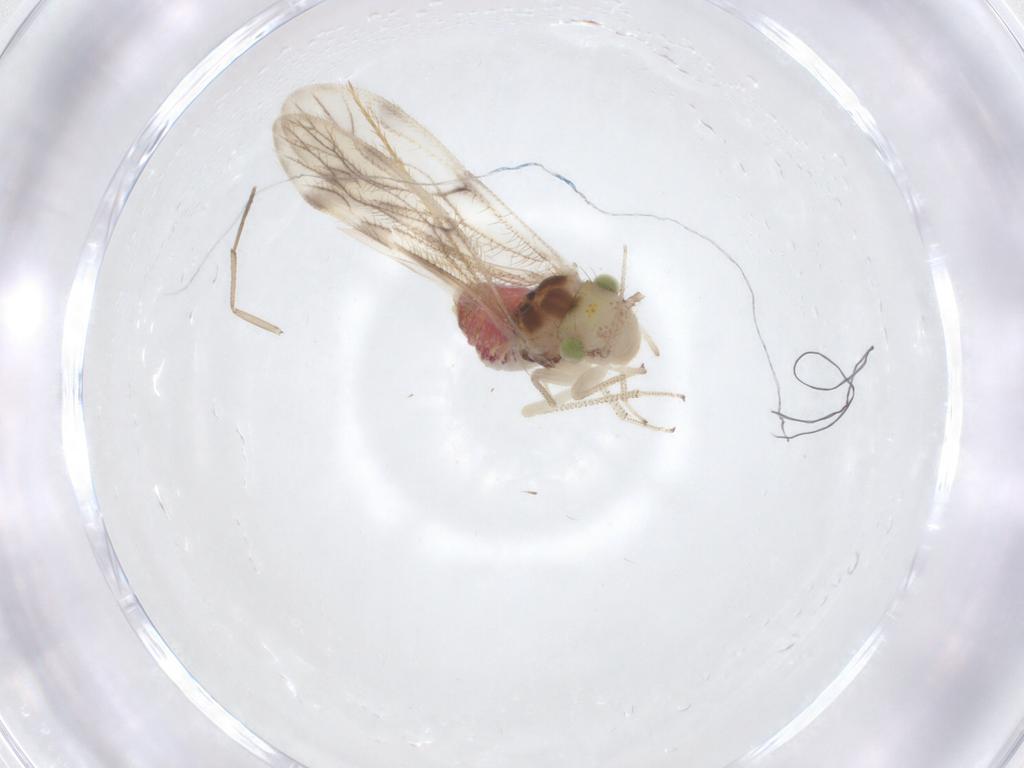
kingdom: Animalia
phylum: Arthropoda
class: Insecta
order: Psocodea
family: Pseudocaeciliidae
